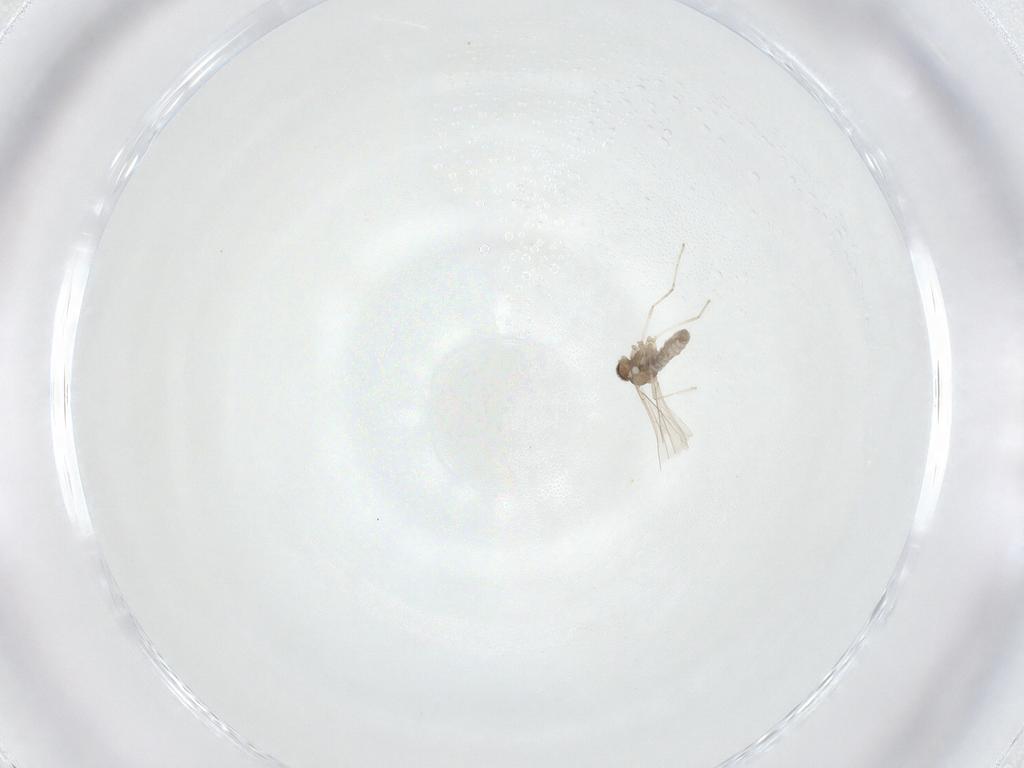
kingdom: Animalia
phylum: Arthropoda
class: Insecta
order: Diptera
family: Cecidomyiidae
